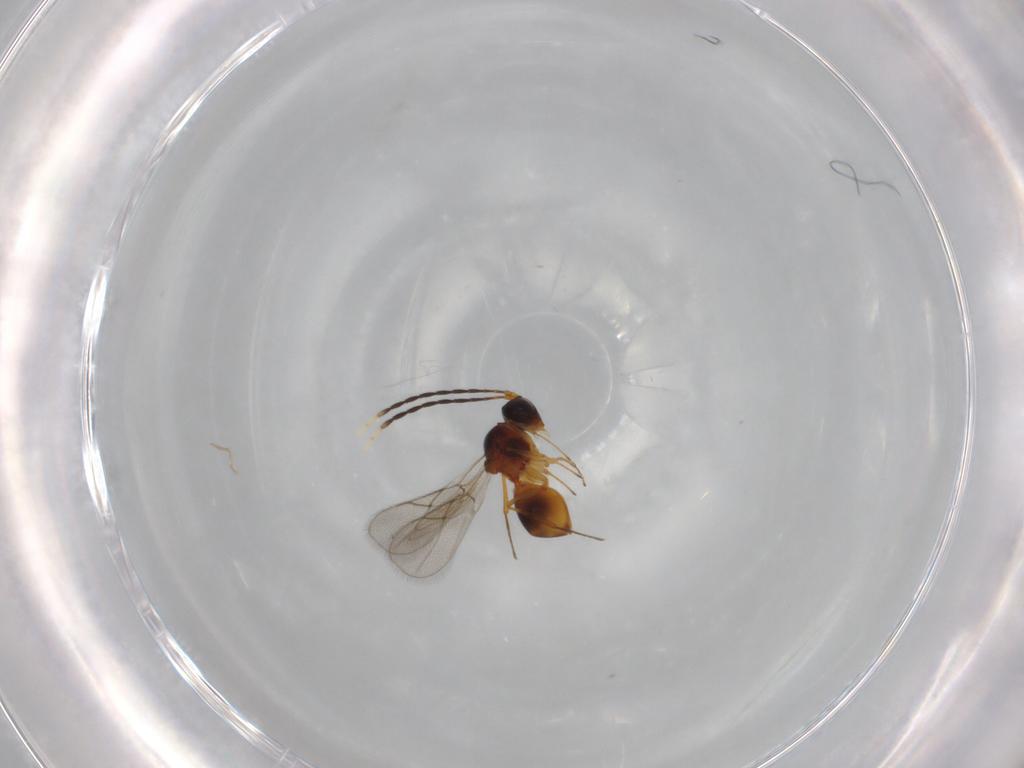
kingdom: Animalia
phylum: Arthropoda
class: Insecta
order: Hymenoptera
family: Figitidae
